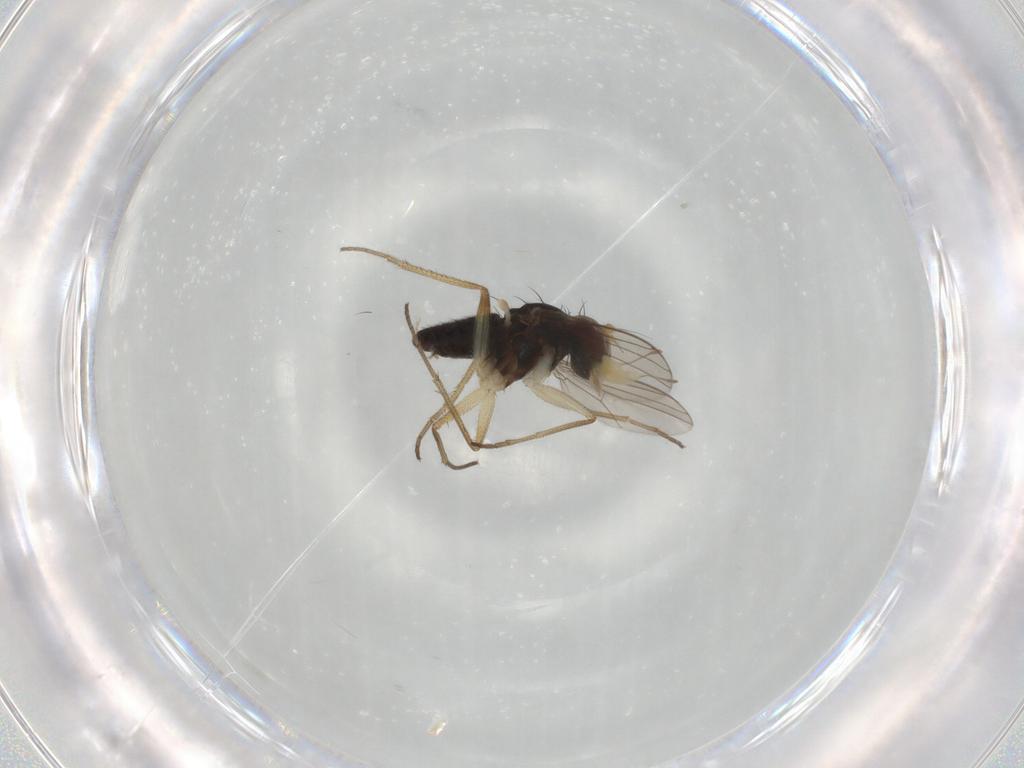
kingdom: Animalia
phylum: Arthropoda
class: Insecta
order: Diptera
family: Dolichopodidae
